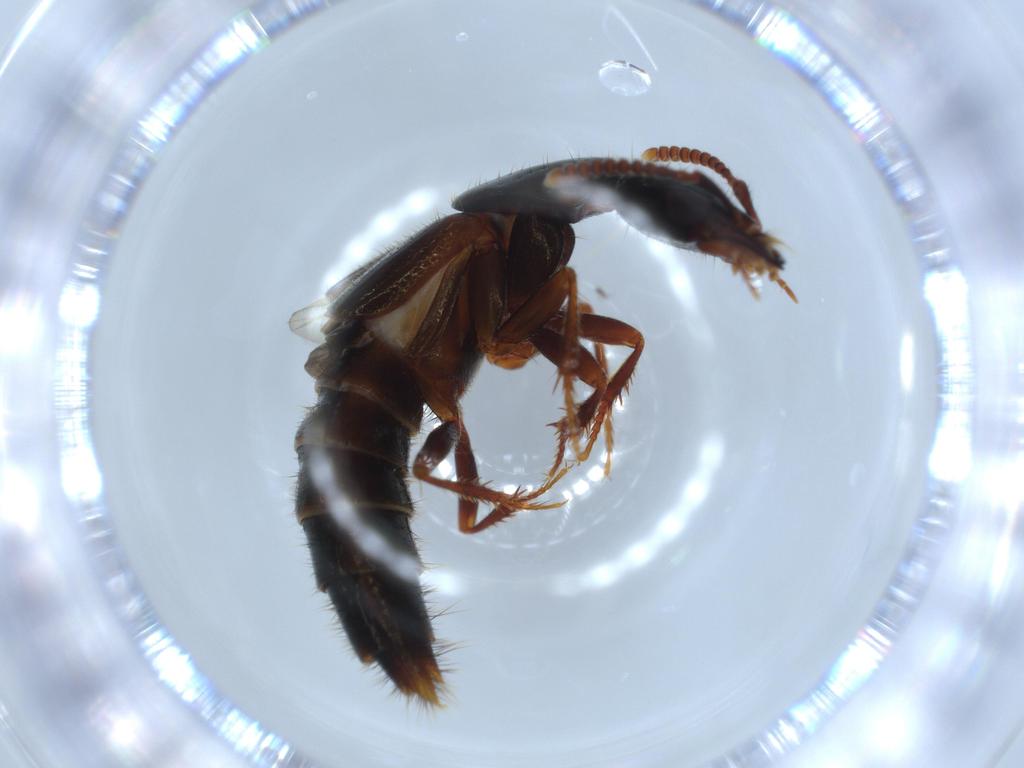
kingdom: Animalia
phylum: Arthropoda
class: Insecta
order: Coleoptera
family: Staphylinidae
